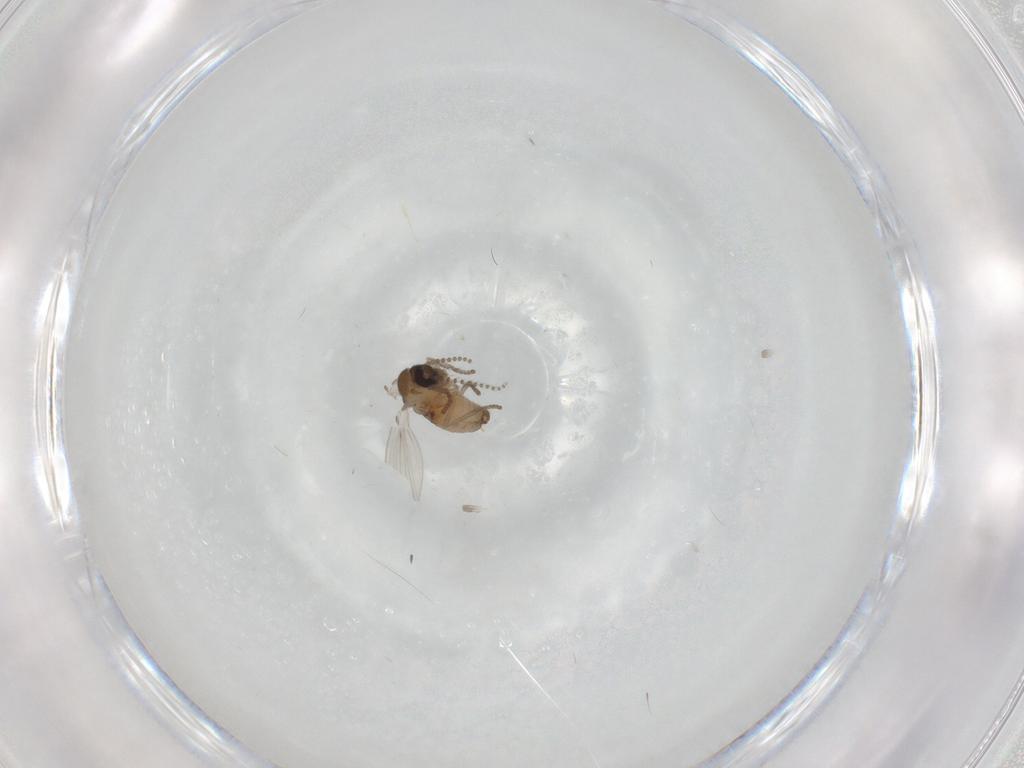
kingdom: Animalia
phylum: Arthropoda
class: Insecta
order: Diptera
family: Psychodidae
